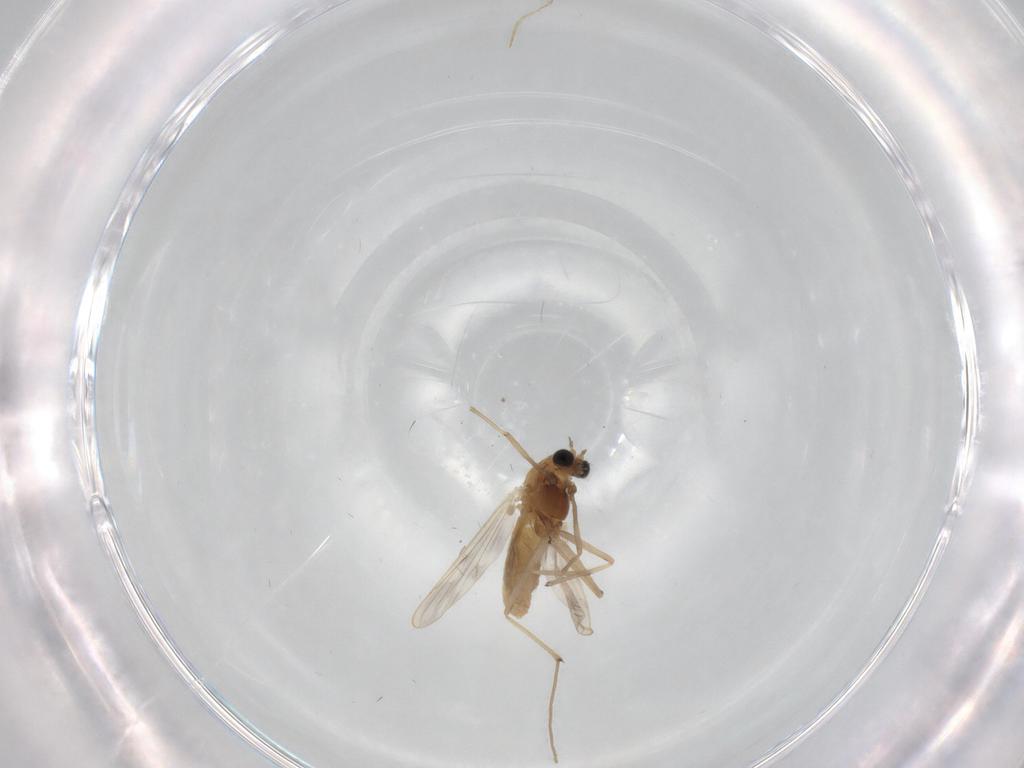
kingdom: Animalia
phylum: Arthropoda
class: Insecta
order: Diptera
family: Chironomidae
